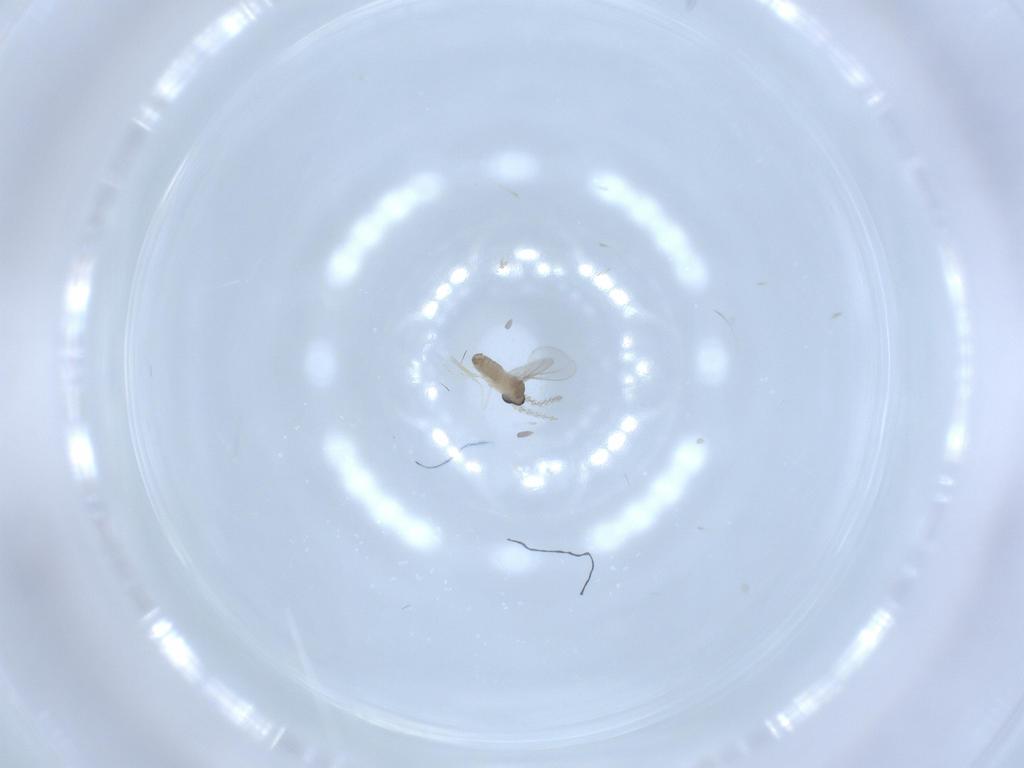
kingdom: Animalia
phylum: Arthropoda
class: Insecta
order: Diptera
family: Cecidomyiidae
